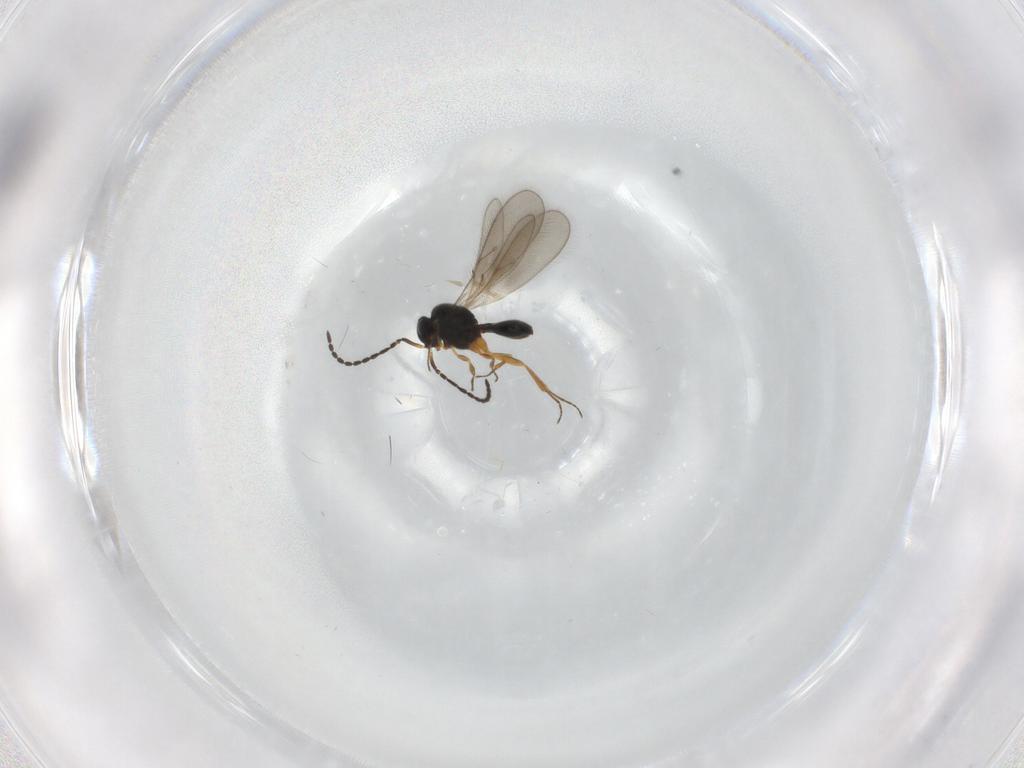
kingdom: Animalia
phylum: Arthropoda
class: Insecta
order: Hymenoptera
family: Scelionidae
